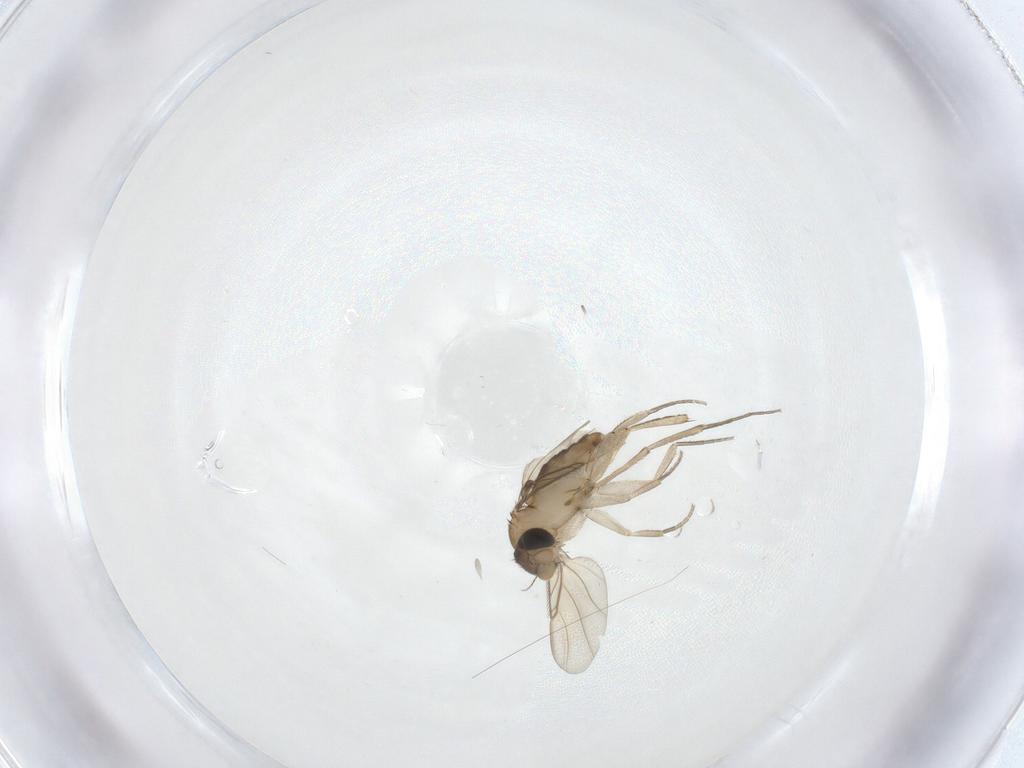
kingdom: Animalia
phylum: Arthropoda
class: Insecta
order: Diptera
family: Phoridae
